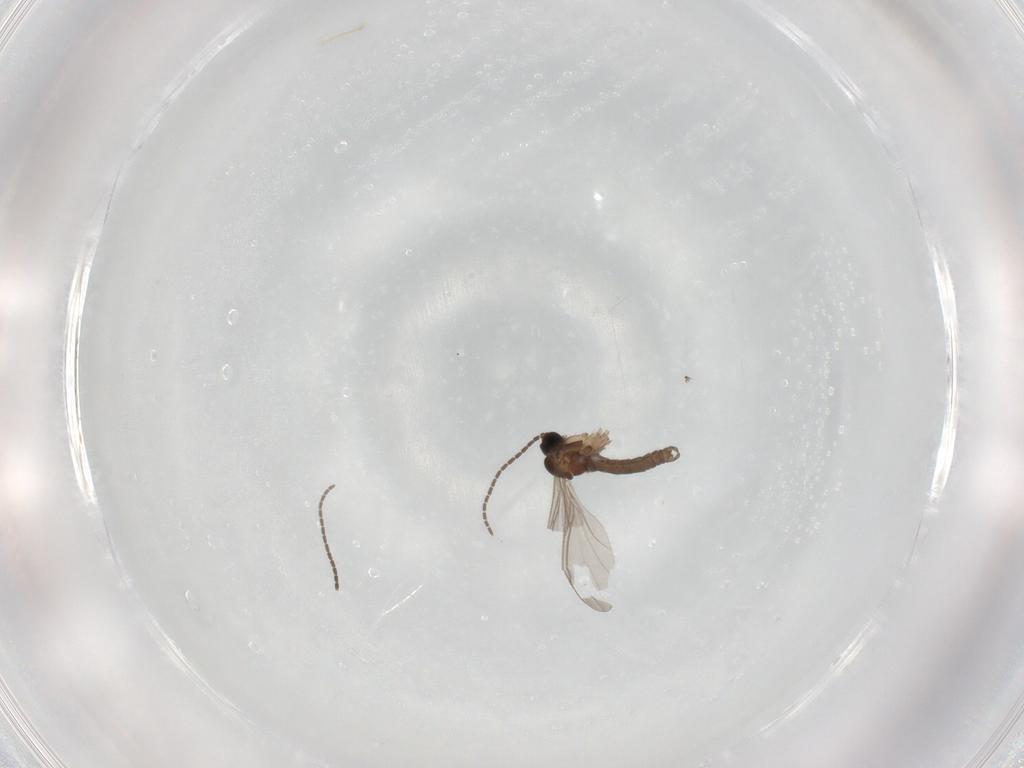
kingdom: Animalia
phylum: Arthropoda
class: Insecta
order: Diptera
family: Sciaridae
